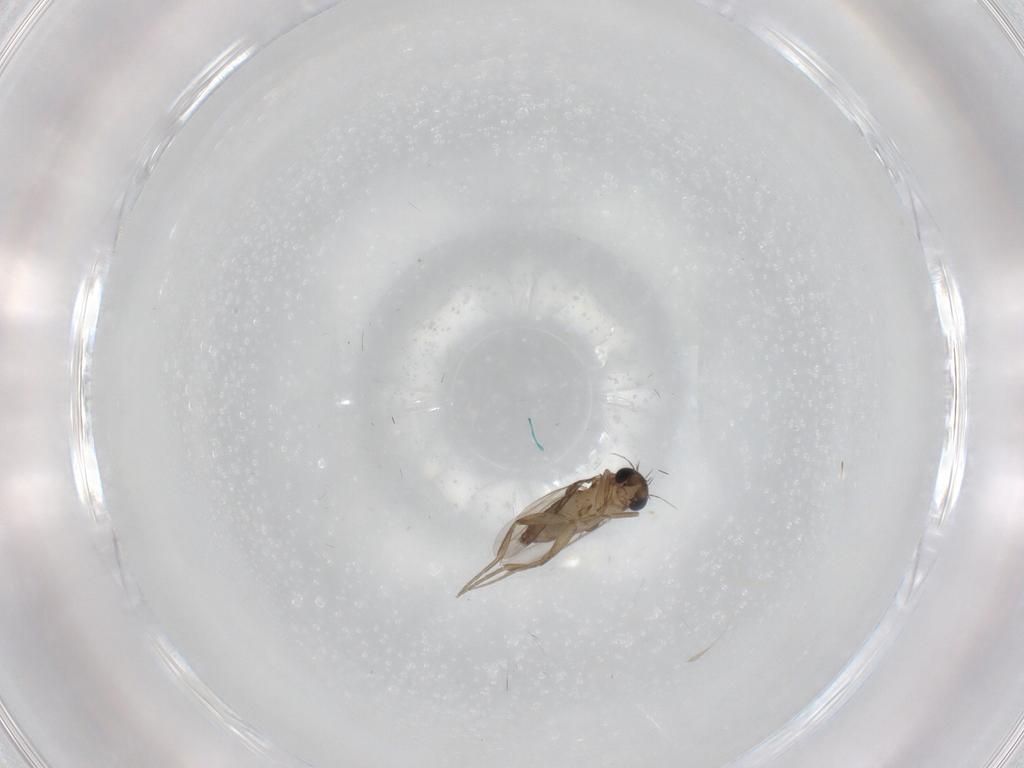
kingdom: Animalia
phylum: Arthropoda
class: Insecta
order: Diptera
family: Phoridae
